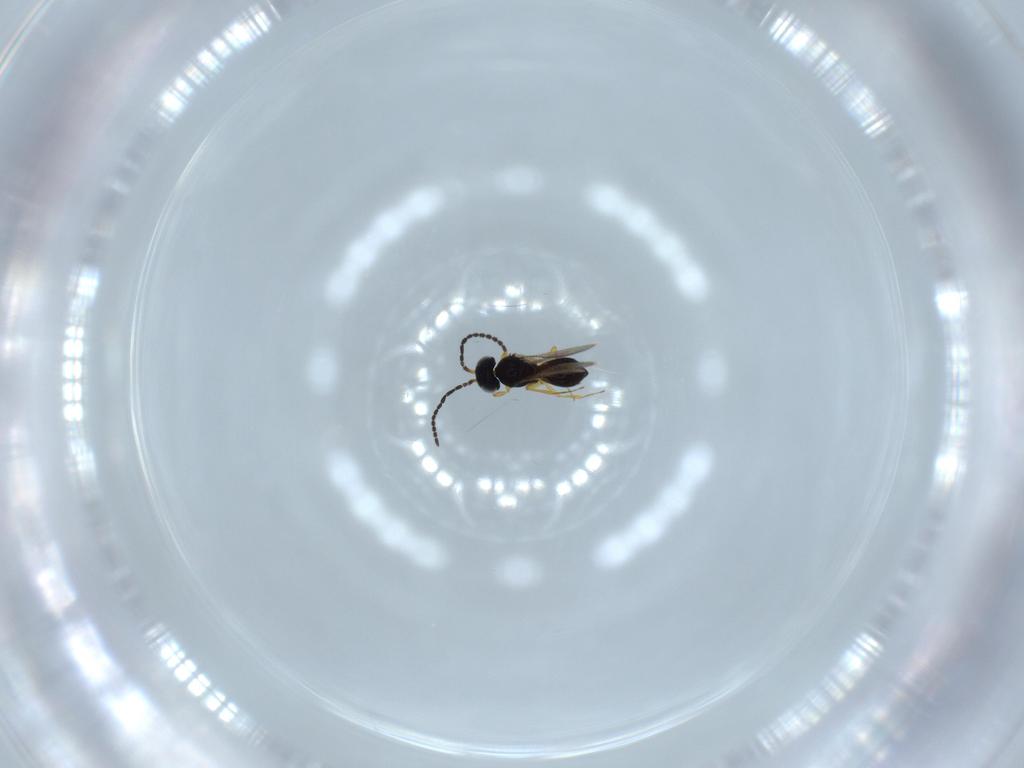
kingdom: Animalia
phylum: Arthropoda
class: Insecta
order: Hymenoptera
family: Scelionidae
